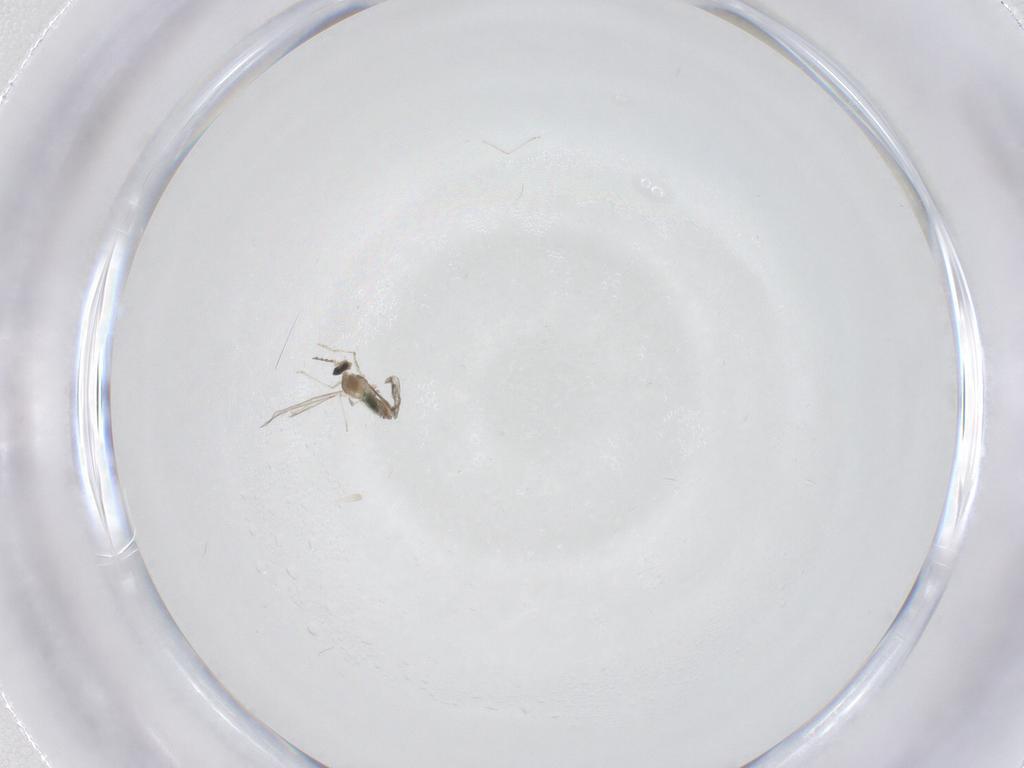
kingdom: Animalia
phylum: Arthropoda
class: Insecta
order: Diptera
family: Cecidomyiidae
